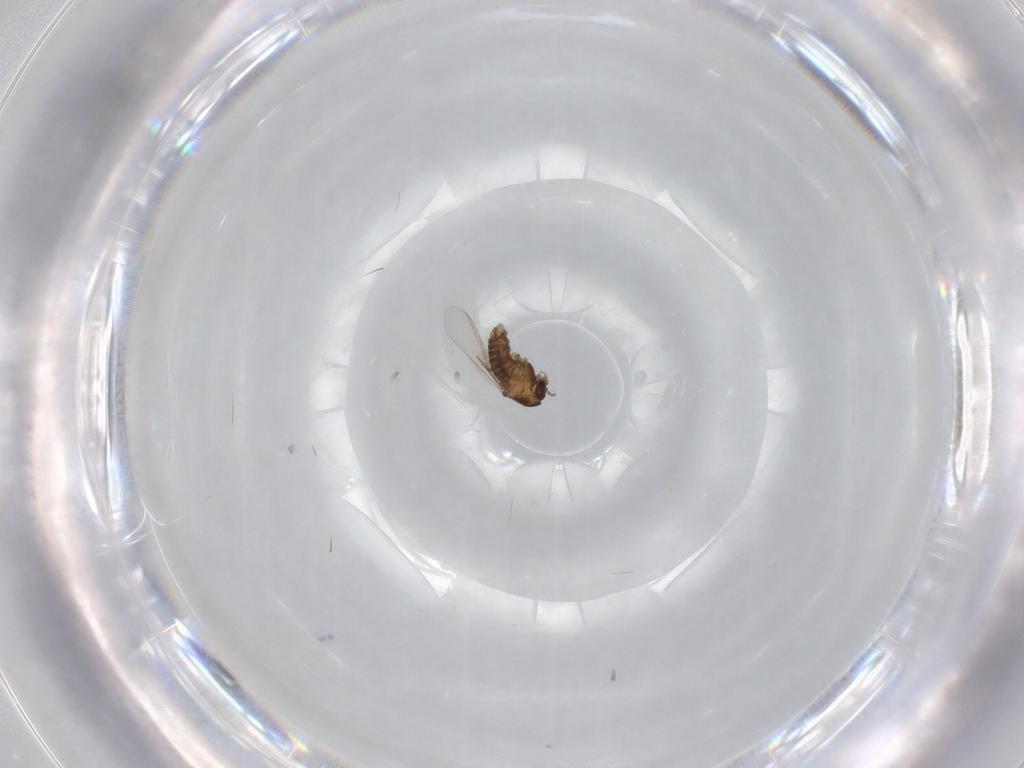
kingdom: Animalia
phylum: Arthropoda
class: Insecta
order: Diptera
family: Chironomidae
